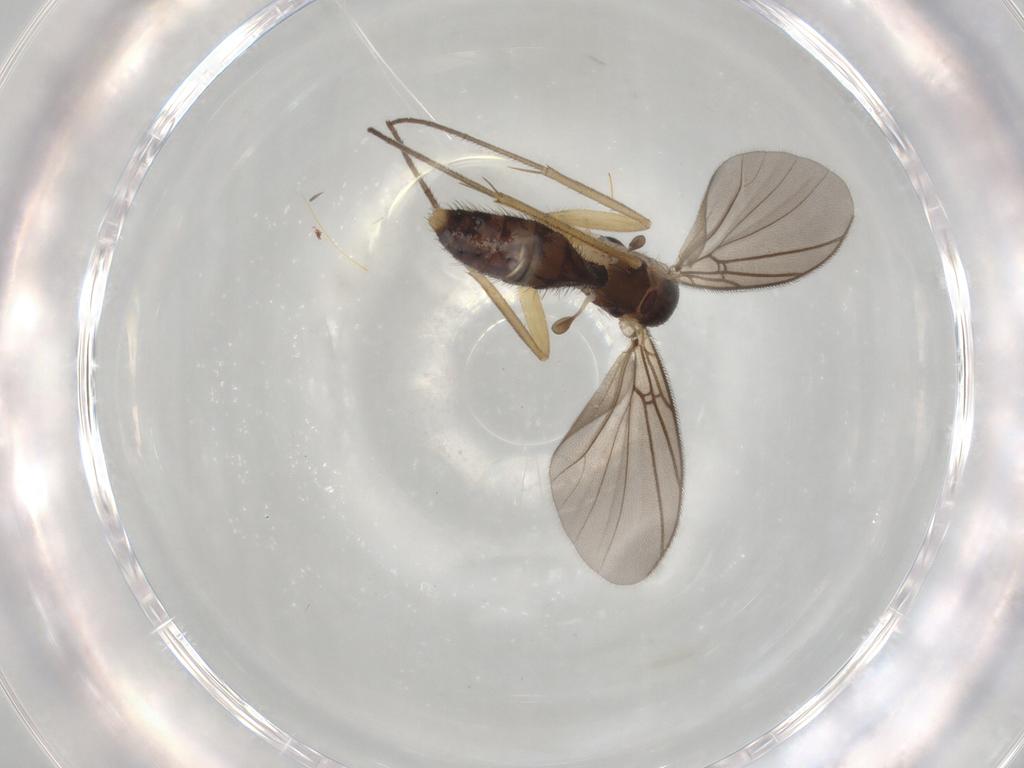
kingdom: Animalia
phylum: Arthropoda
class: Insecta
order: Diptera
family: Mycetophilidae
